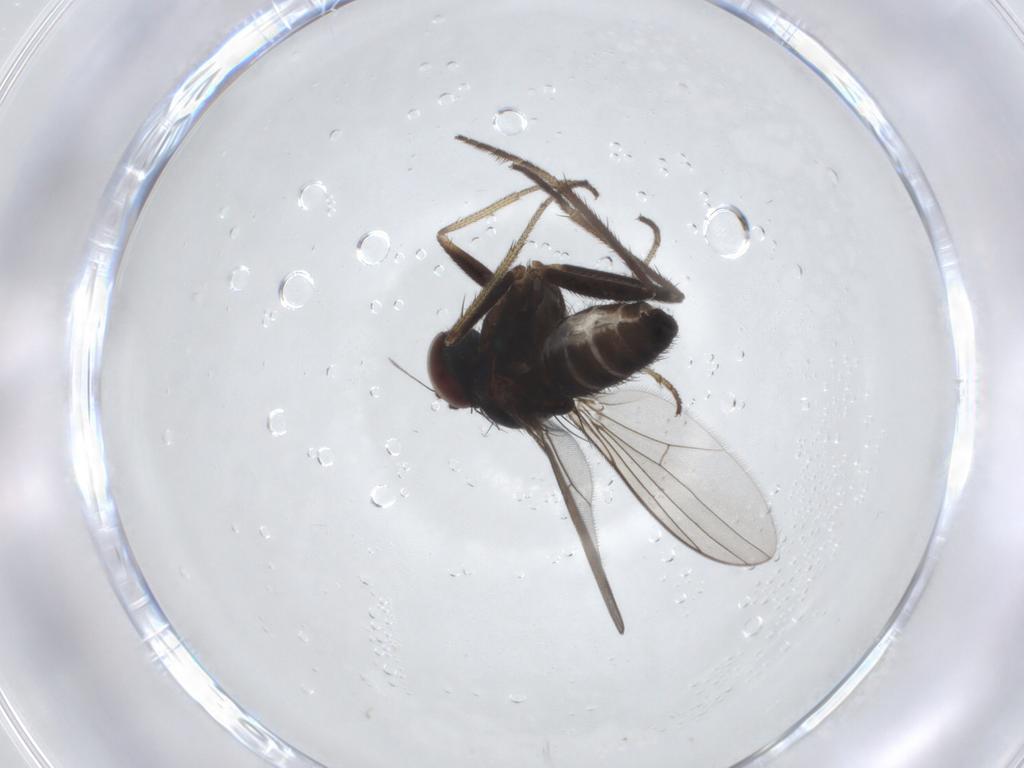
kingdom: Animalia
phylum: Arthropoda
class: Insecta
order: Diptera
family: Dolichopodidae
